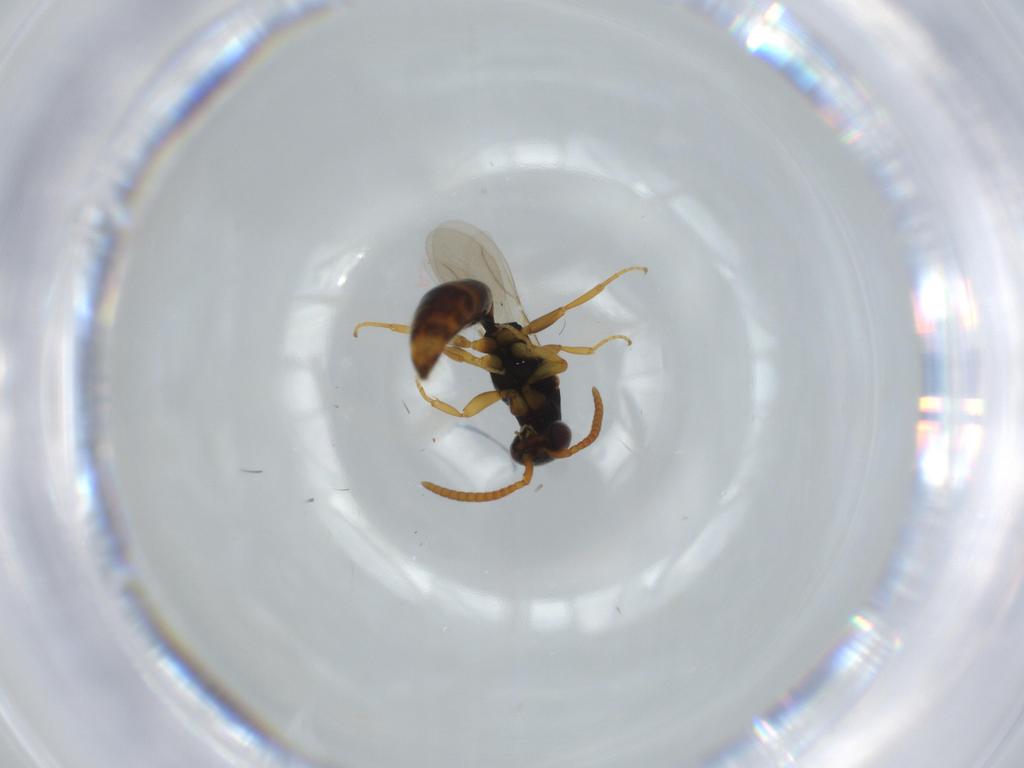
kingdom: Animalia
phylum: Arthropoda
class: Insecta
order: Hymenoptera
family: Bethylidae
